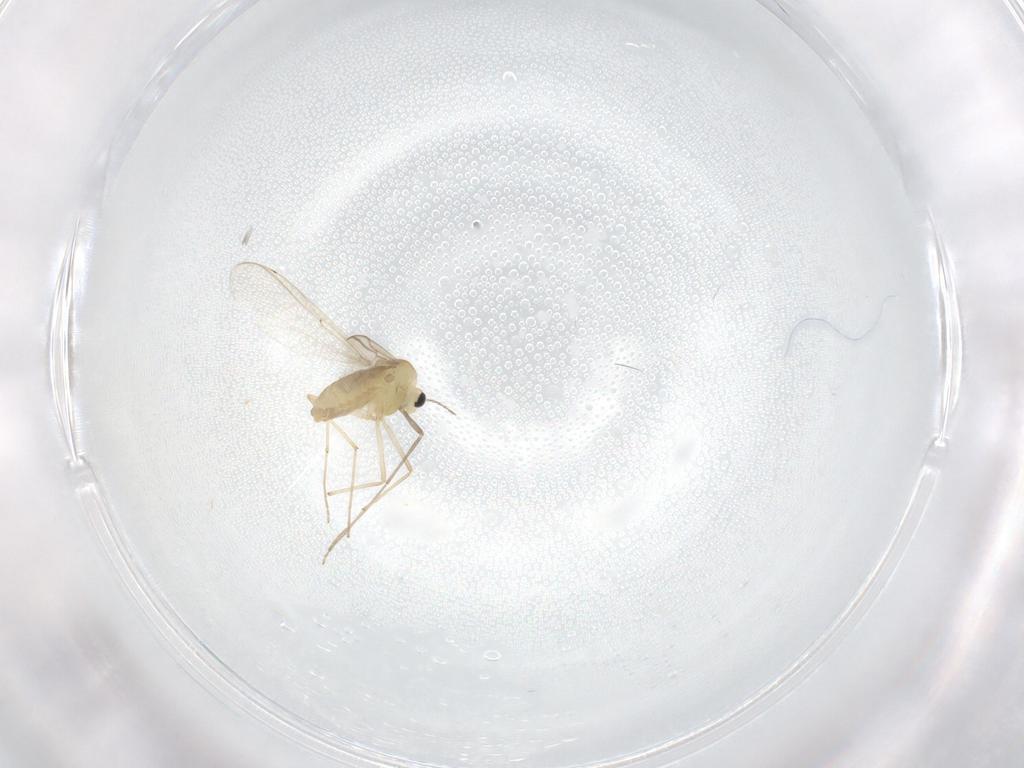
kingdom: Animalia
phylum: Arthropoda
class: Insecta
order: Diptera
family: Chironomidae
